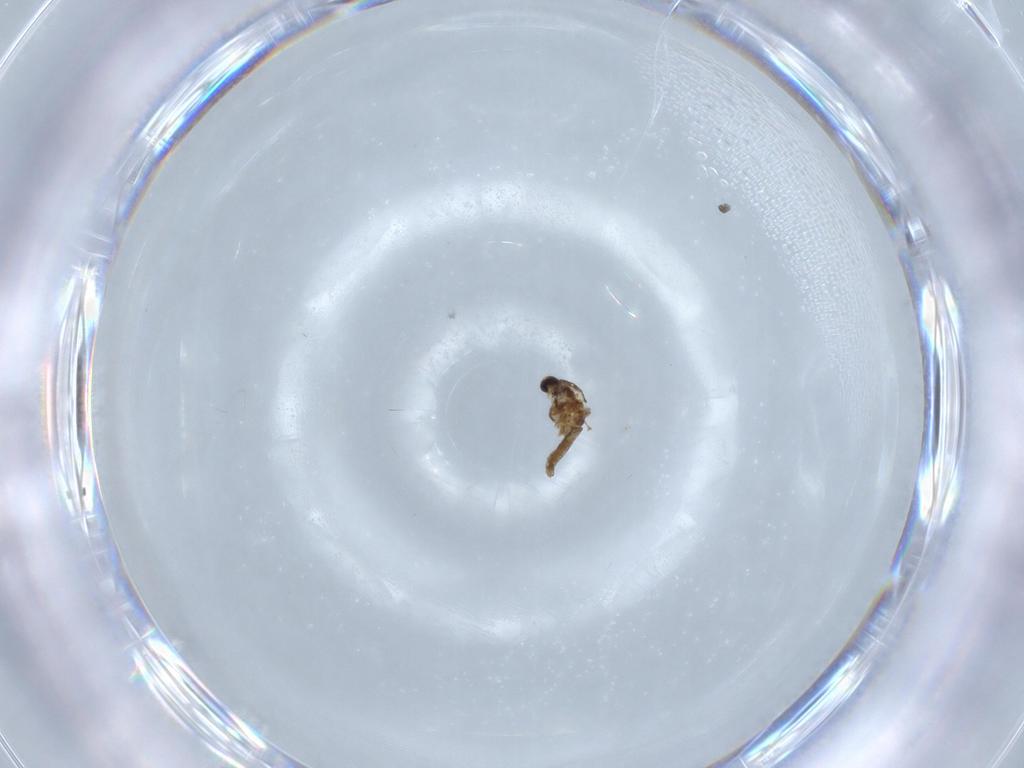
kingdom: Animalia
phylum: Arthropoda
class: Insecta
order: Diptera
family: Chironomidae
